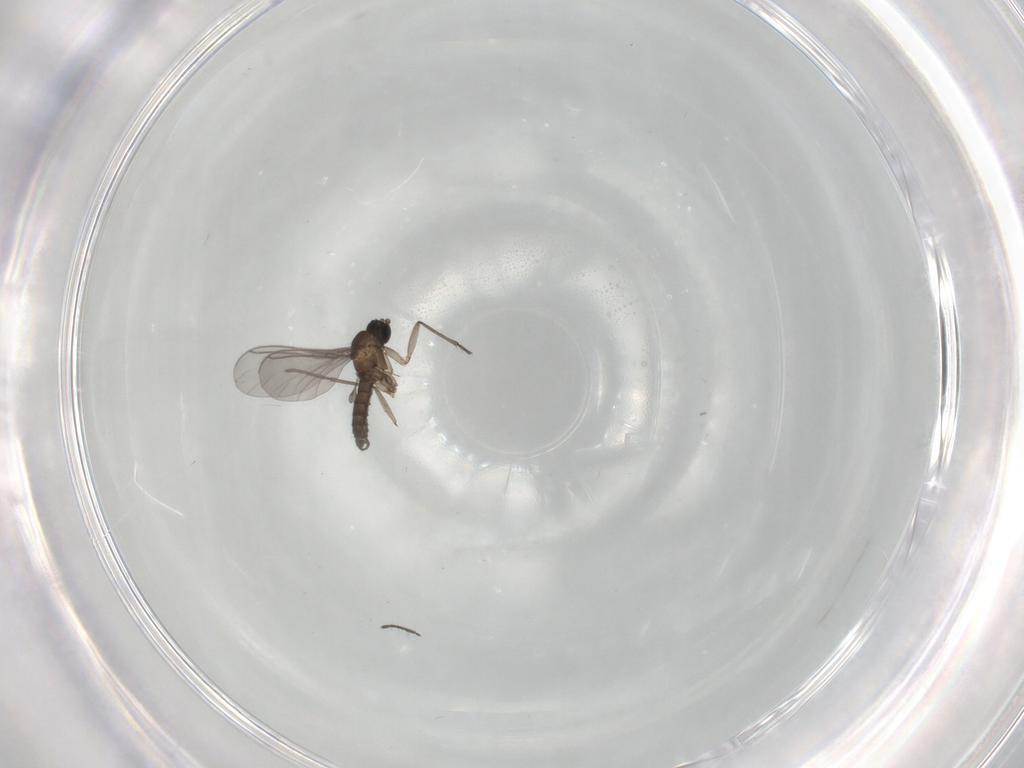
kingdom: Animalia
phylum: Arthropoda
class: Insecta
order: Diptera
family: Sciaridae
